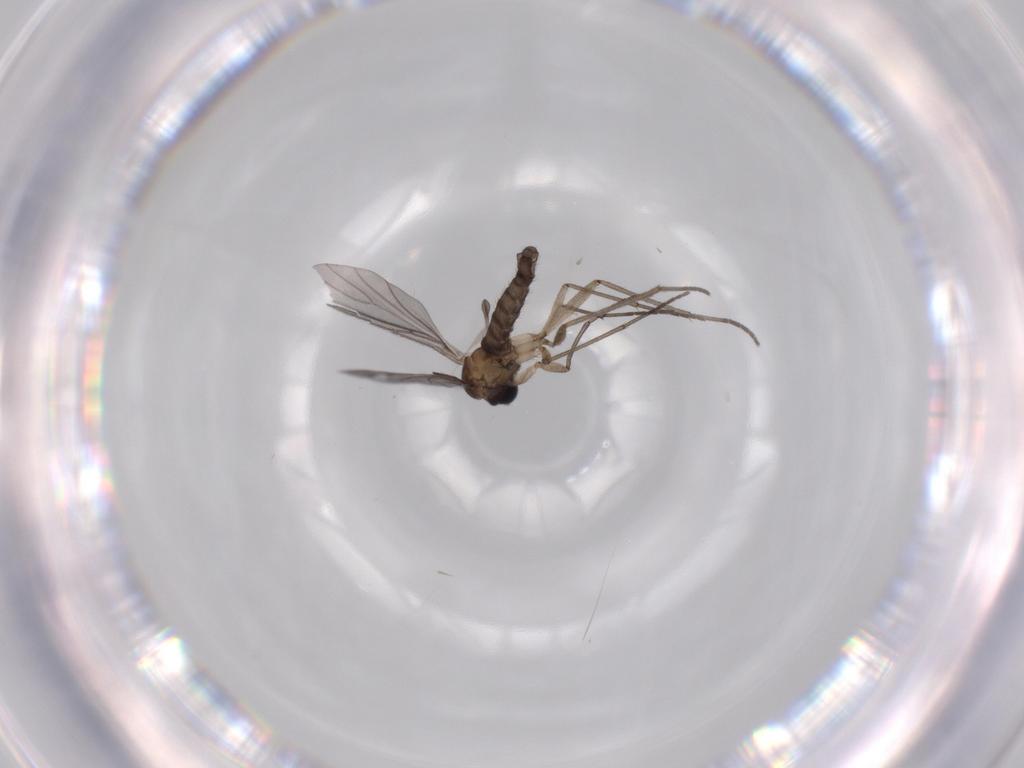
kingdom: Animalia
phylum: Arthropoda
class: Insecta
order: Diptera
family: Sciaridae
